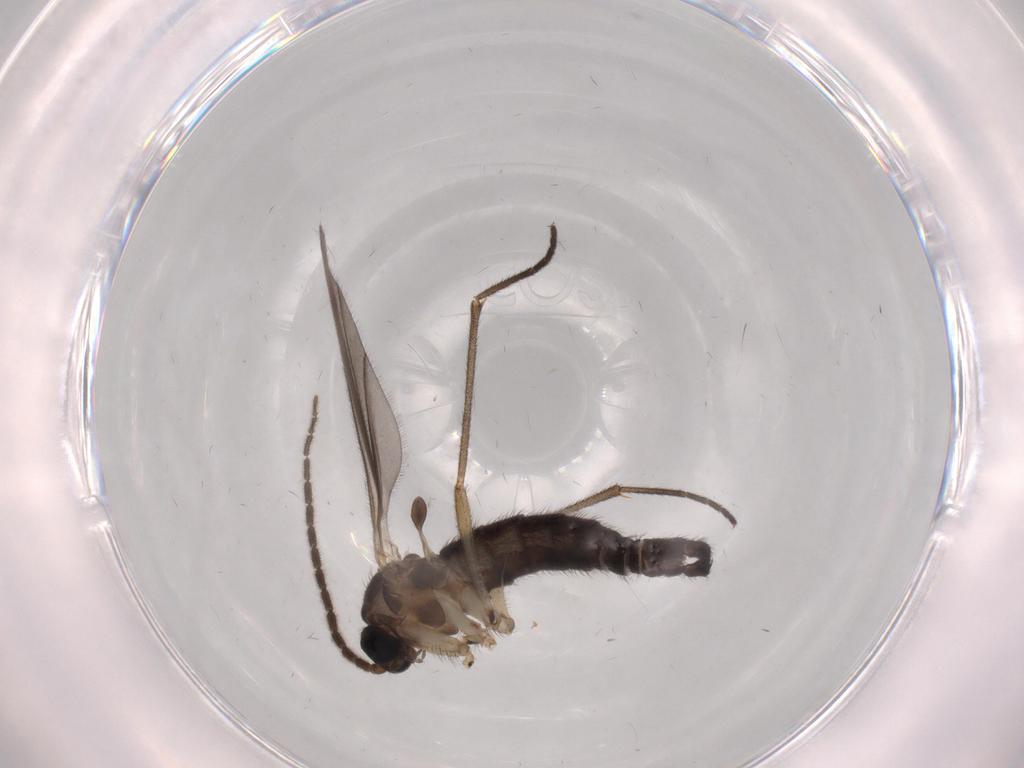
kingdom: Animalia
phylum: Arthropoda
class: Insecta
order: Diptera
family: Sciaridae
